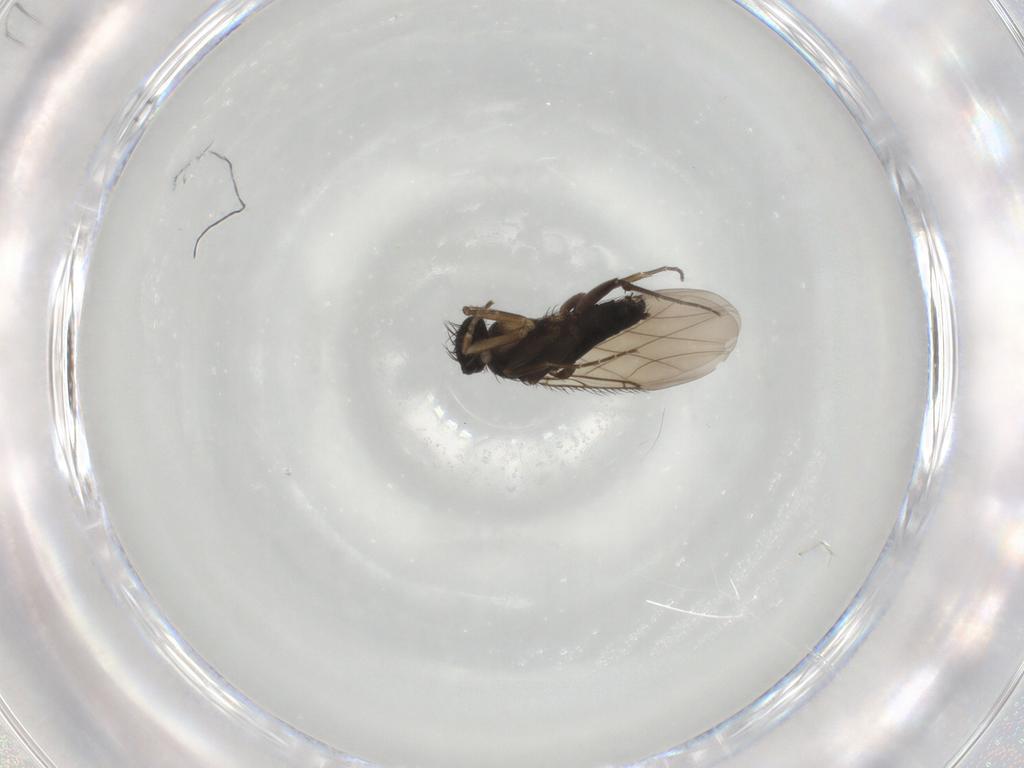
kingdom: Animalia
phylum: Arthropoda
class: Insecta
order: Diptera
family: Phoridae
